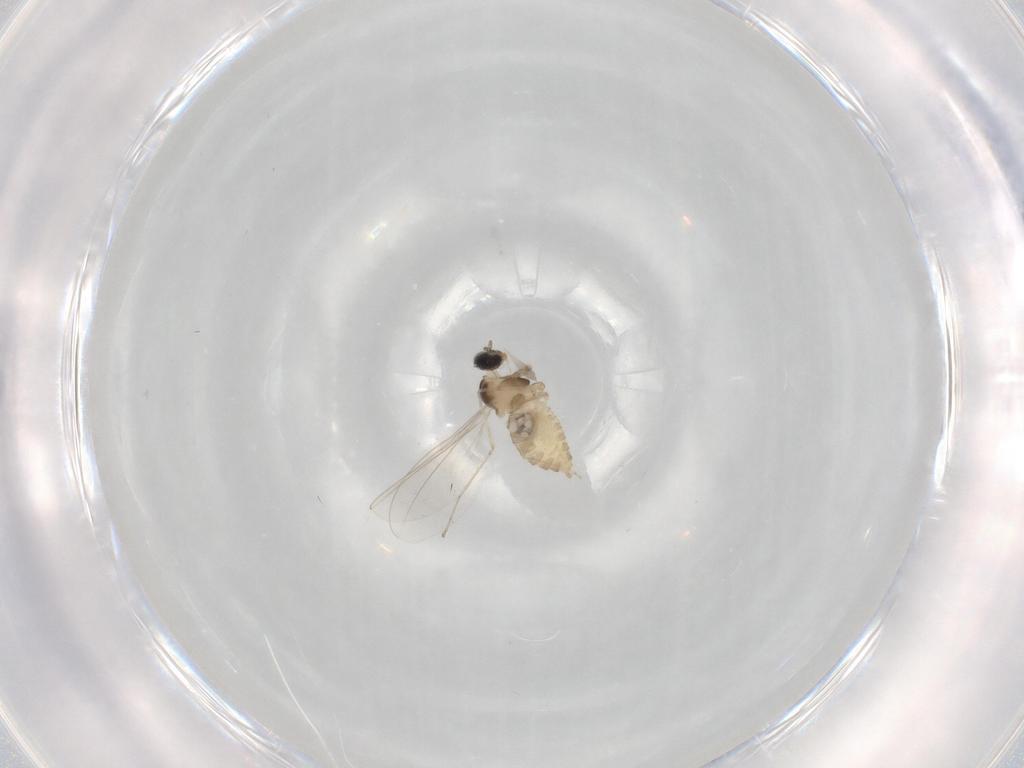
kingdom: Animalia
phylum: Arthropoda
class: Insecta
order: Diptera
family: Cecidomyiidae
